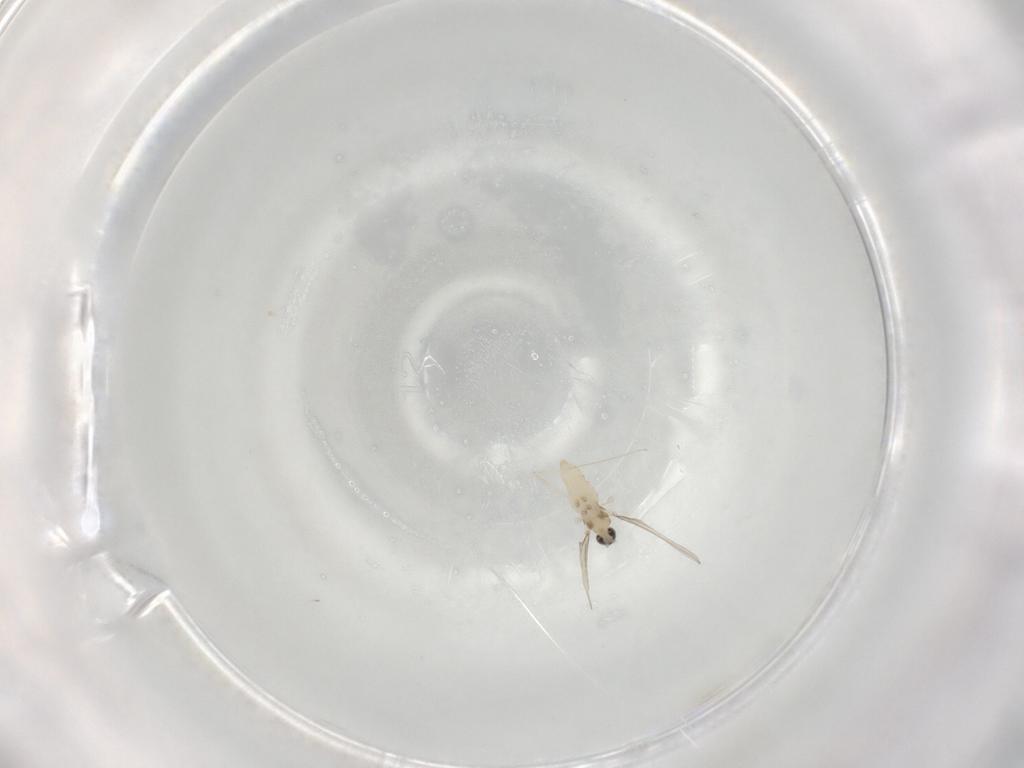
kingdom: Animalia
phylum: Arthropoda
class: Insecta
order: Diptera
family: Cecidomyiidae
